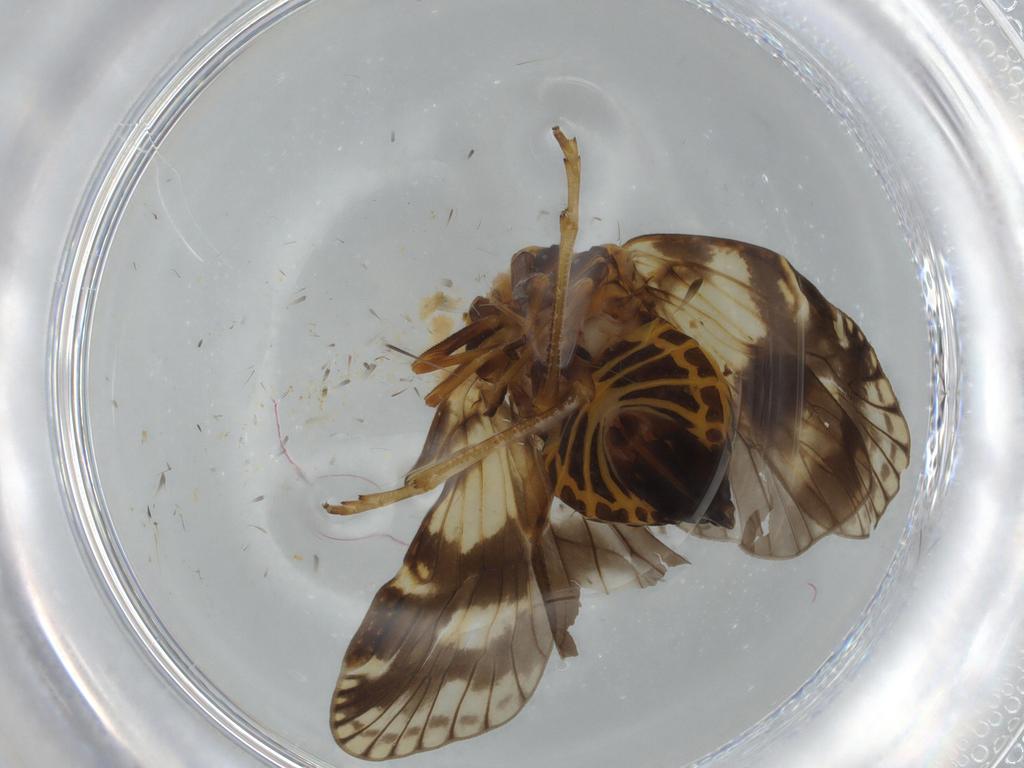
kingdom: Animalia
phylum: Arthropoda
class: Insecta
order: Hemiptera
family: Cixiidae
